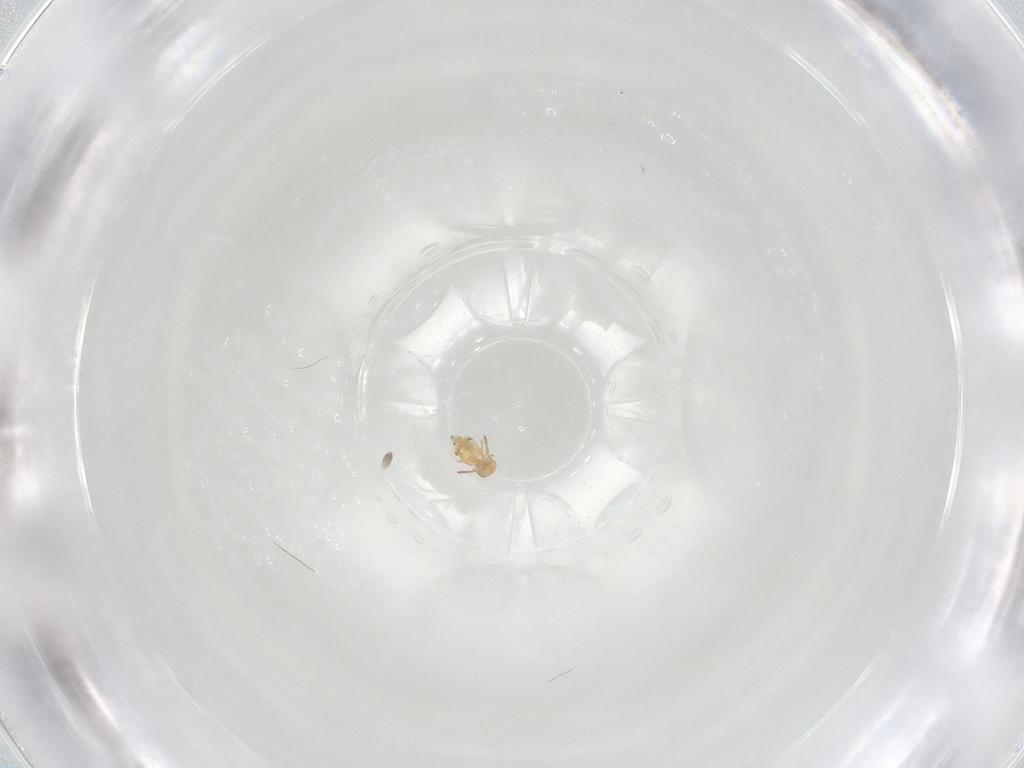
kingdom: Animalia
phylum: Arthropoda
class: Collembola
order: Symphypleona
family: Bourletiellidae
